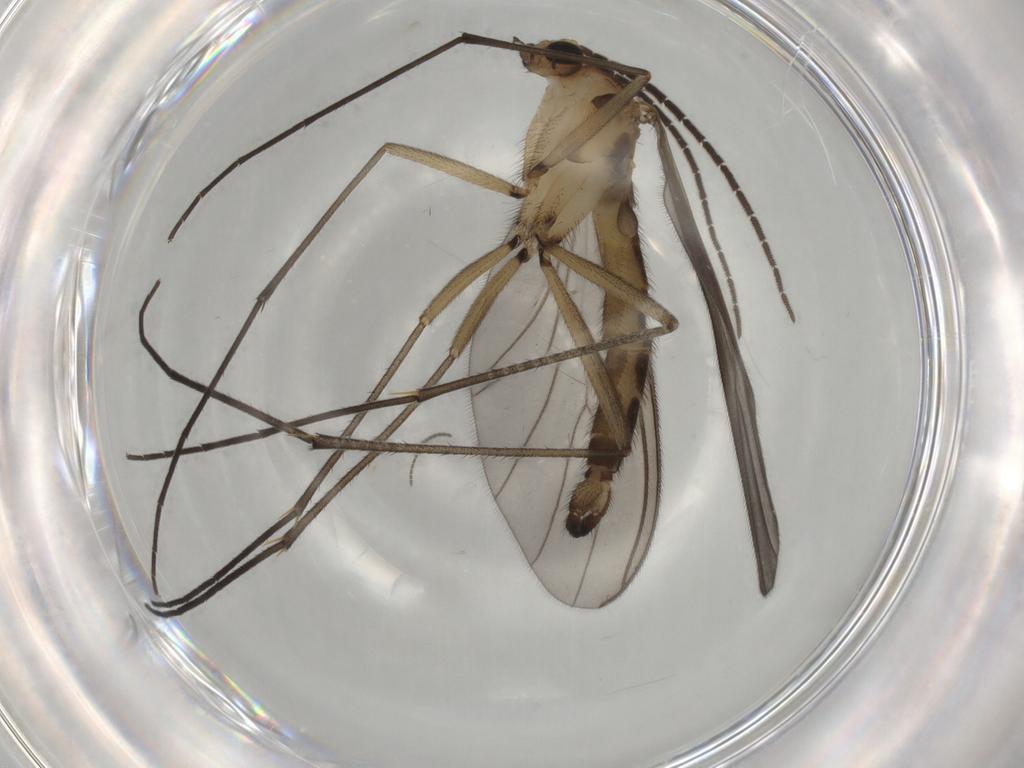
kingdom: Animalia
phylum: Arthropoda
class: Insecta
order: Diptera
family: Sciaridae
